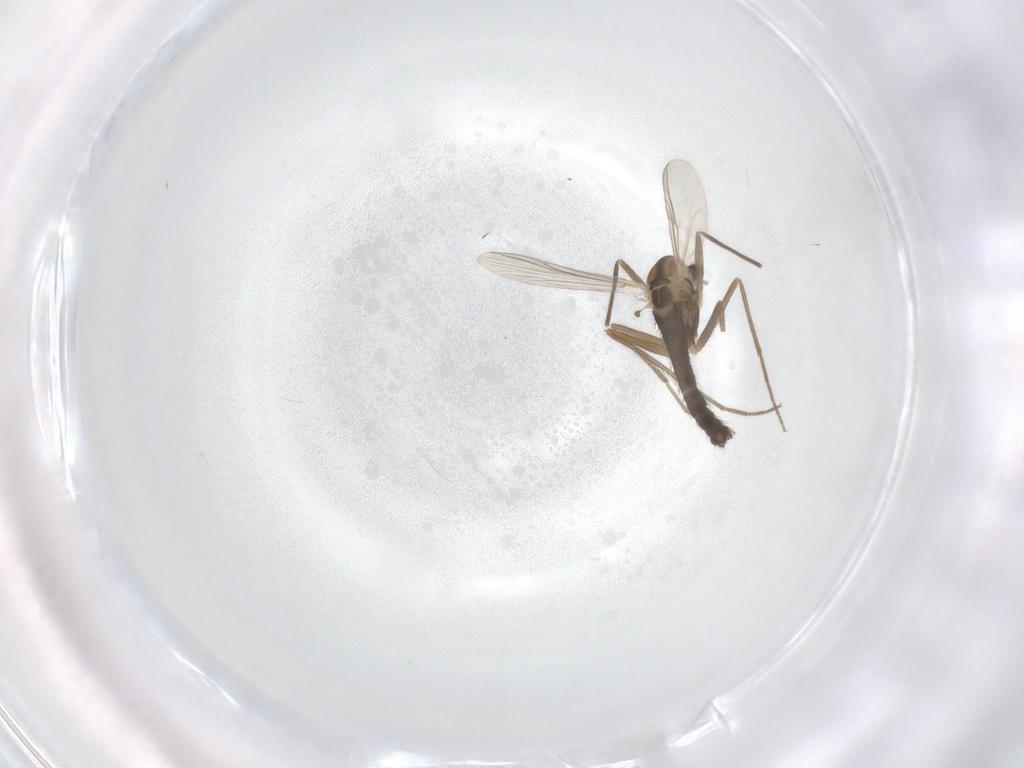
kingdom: Animalia
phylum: Arthropoda
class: Insecta
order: Diptera
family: Chironomidae
